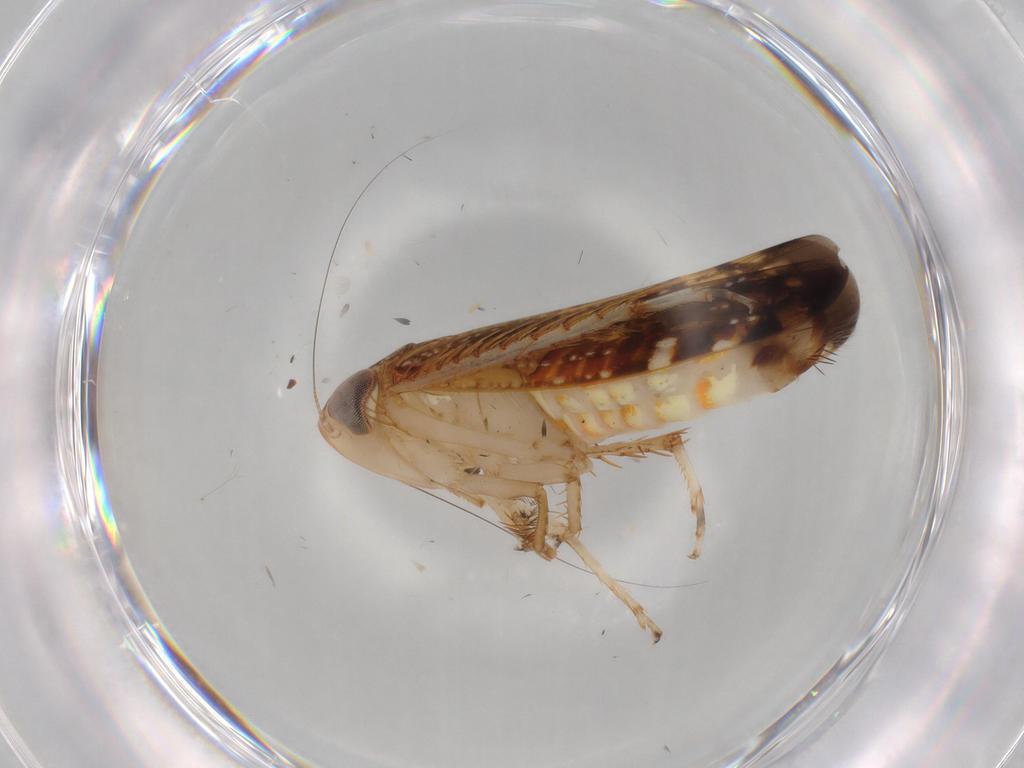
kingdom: Animalia
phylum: Arthropoda
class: Insecta
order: Hemiptera
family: Cicadellidae
